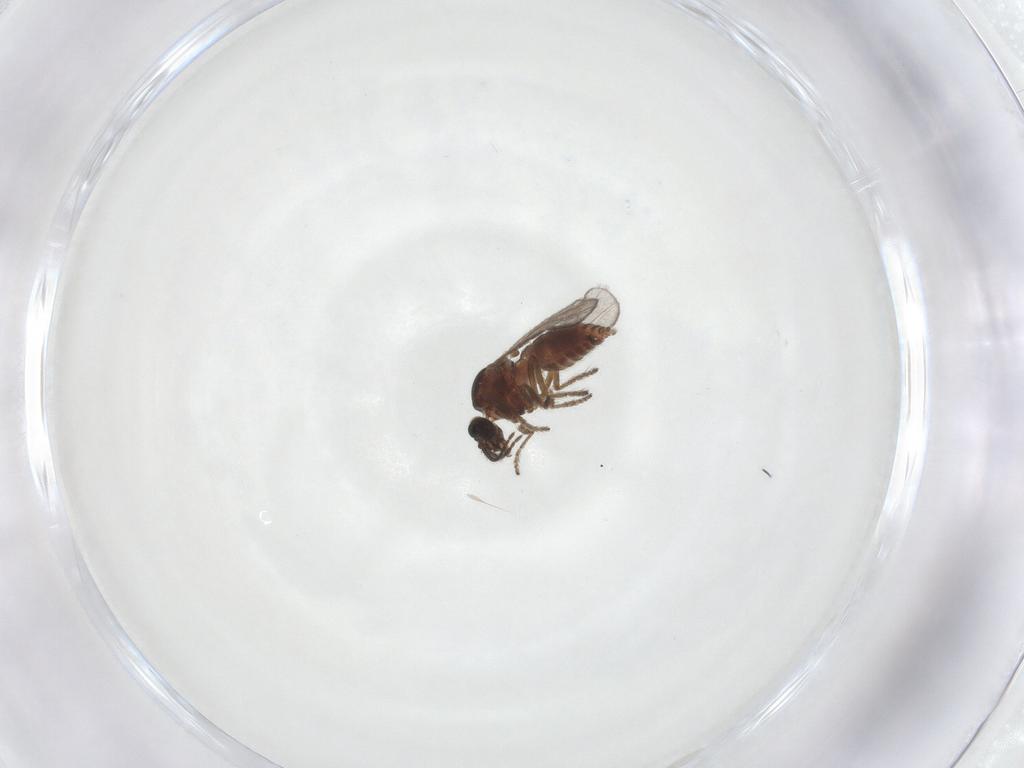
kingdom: Animalia
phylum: Arthropoda
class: Insecta
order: Diptera
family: Ceratopogonidae
